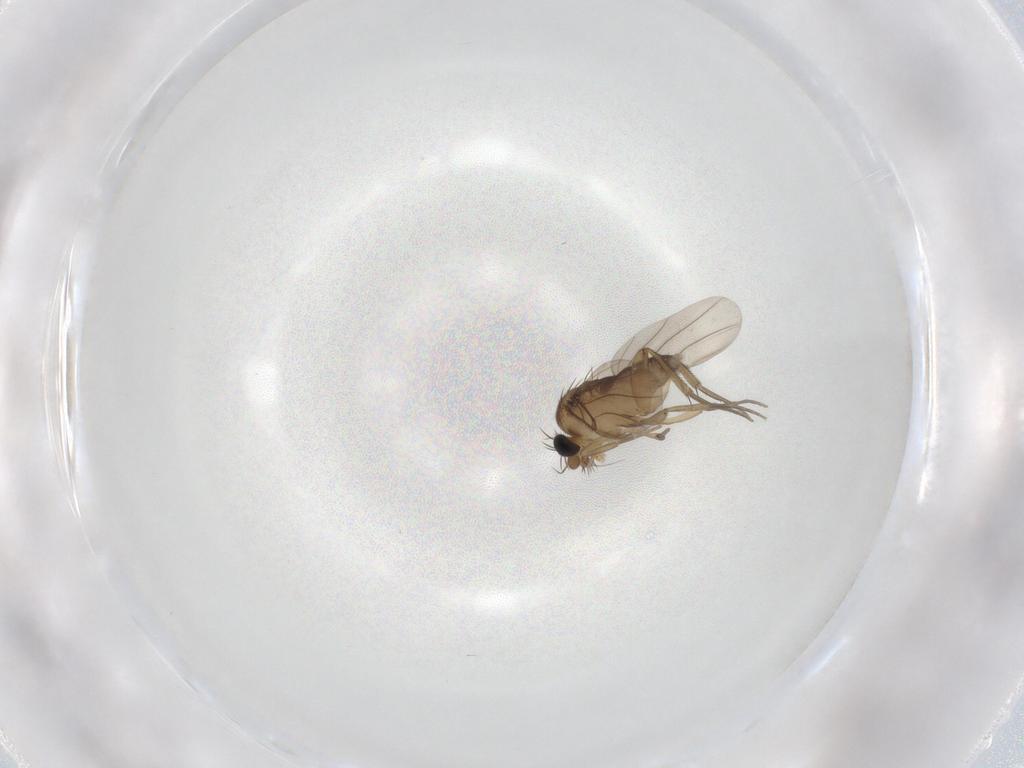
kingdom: Animalia
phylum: Arthropoda
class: Insecta
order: Diptera
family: Phoridae
